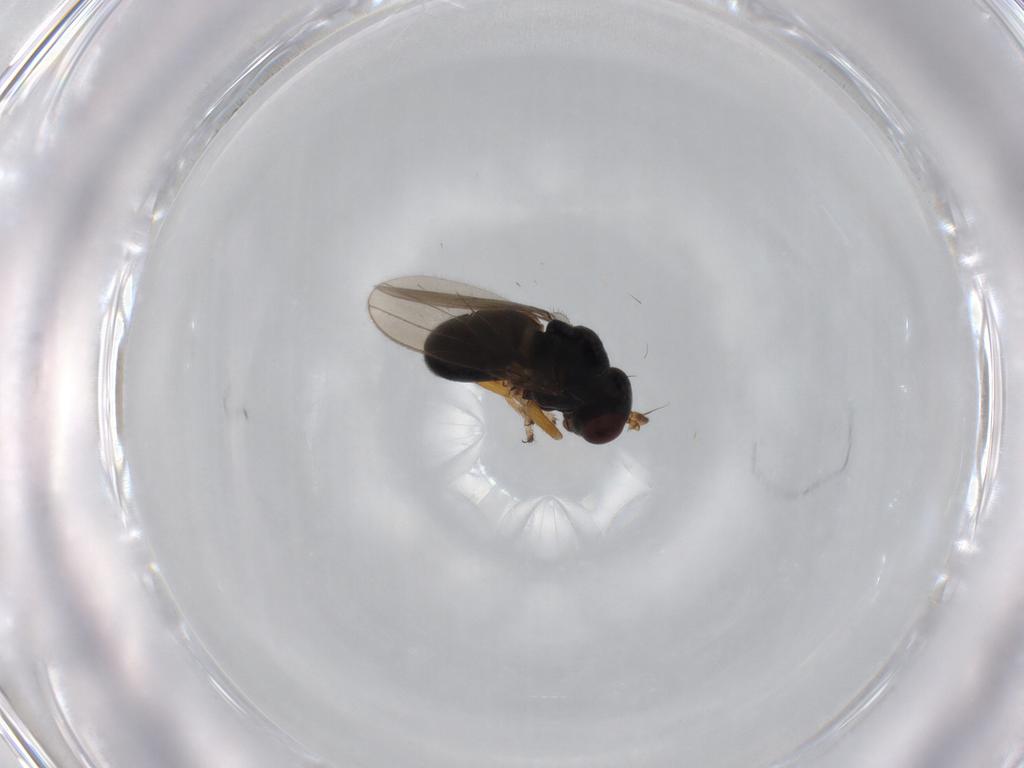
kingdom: Animalia
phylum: Arthropoda
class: Insecta
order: Diptera
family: Ephydridae
